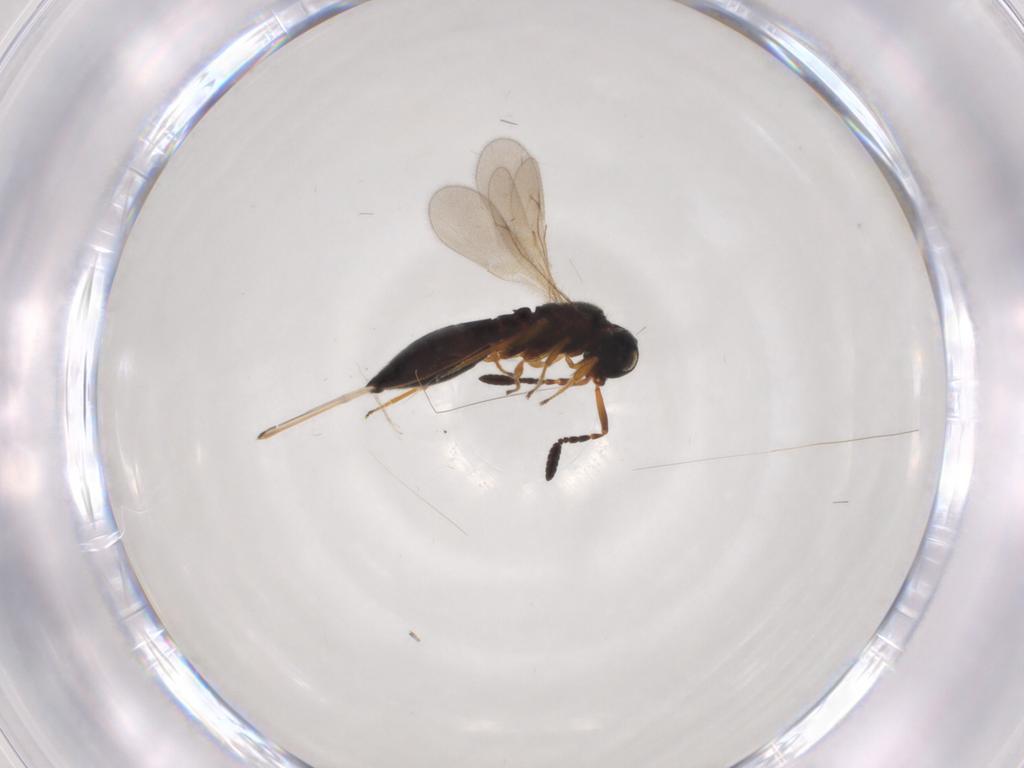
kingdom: Animalia
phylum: Arthropoda
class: Insecta
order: Hymenoptera
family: Scelionidae
